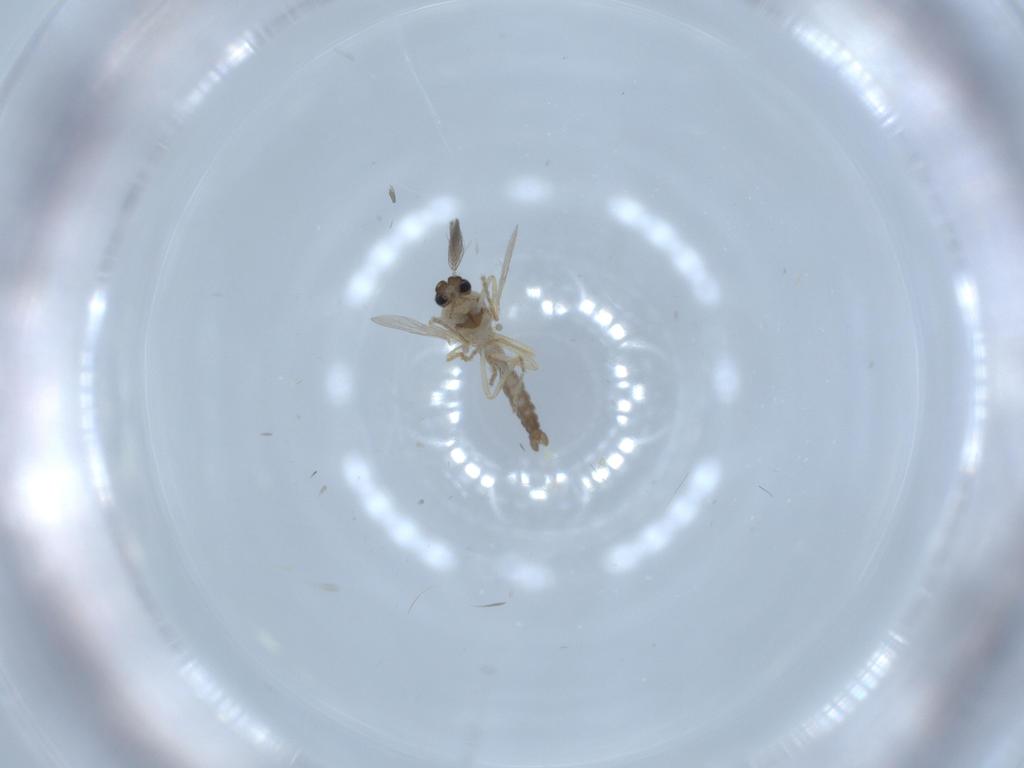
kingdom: Animalia
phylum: Arthropoda
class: Insecta
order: Diptera
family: Ceratopogonidae
